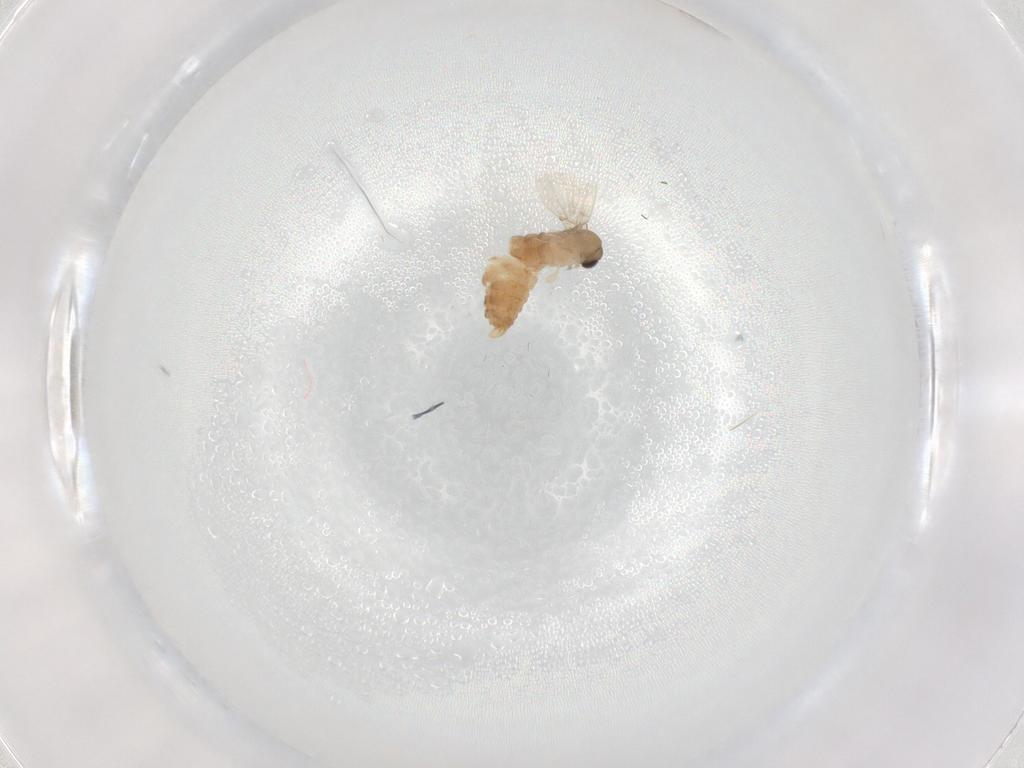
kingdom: Animalia
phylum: Arthropoda
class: Insecta
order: Diptera
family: Psychodidae
